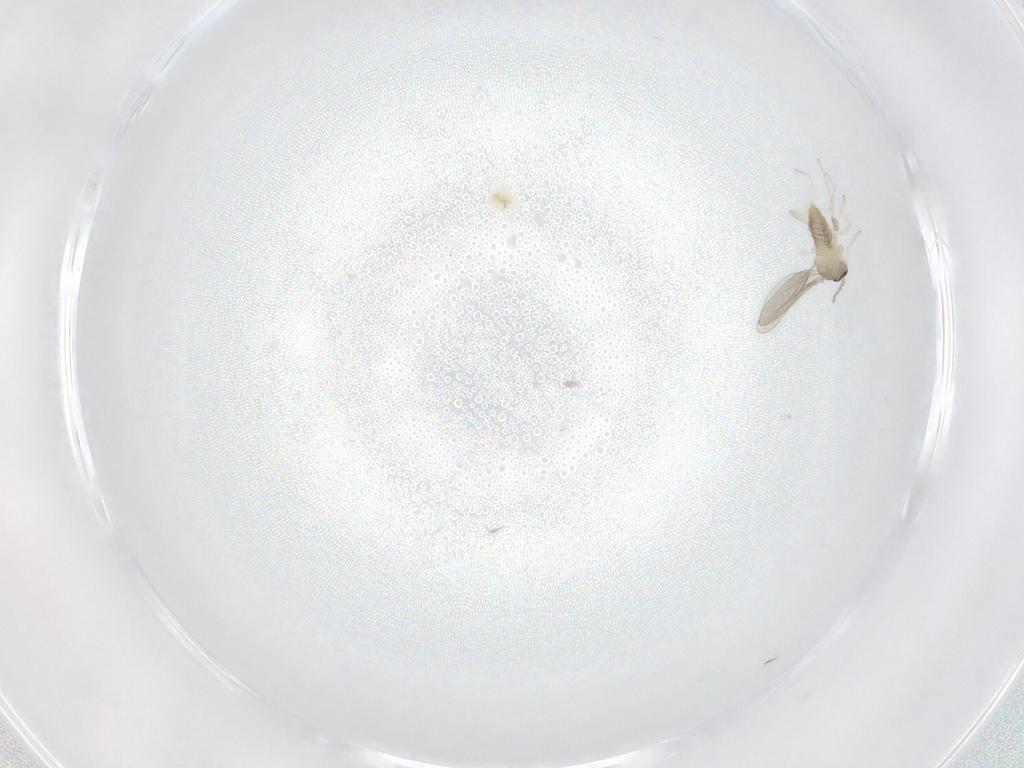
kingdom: Animalia
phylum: Arthropoda
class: Insecta
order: Diptera
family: Cecidomyiidae
